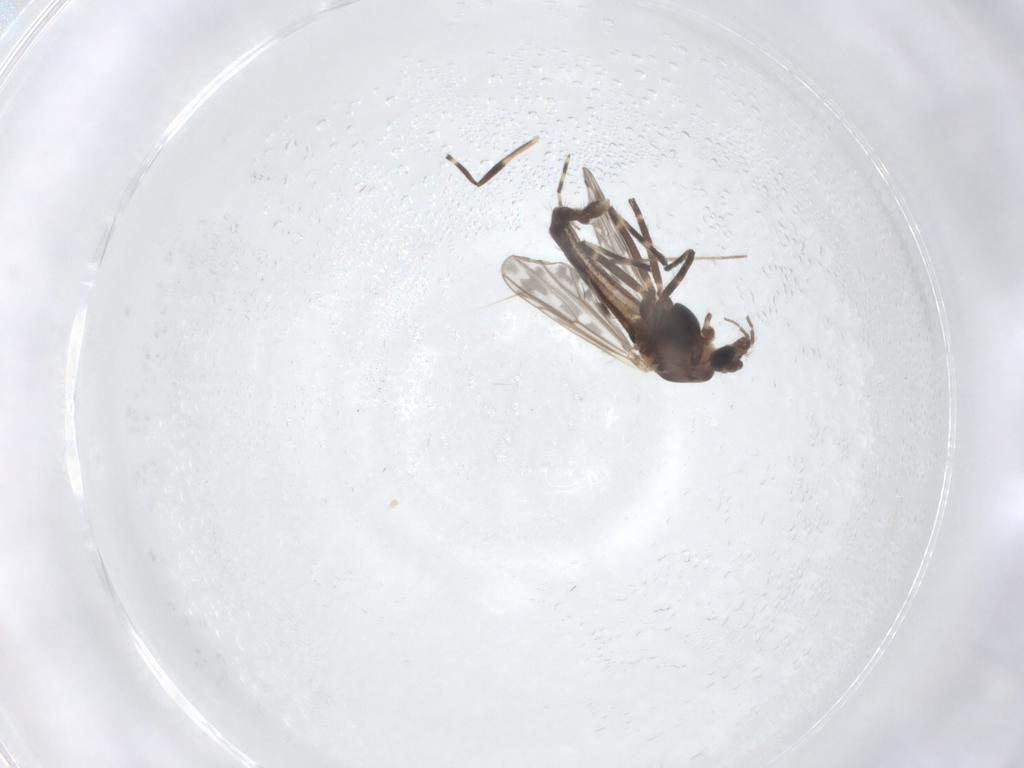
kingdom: Animalia
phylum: Arthropoda
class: Insecta
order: Diptera
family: Chironomidae
